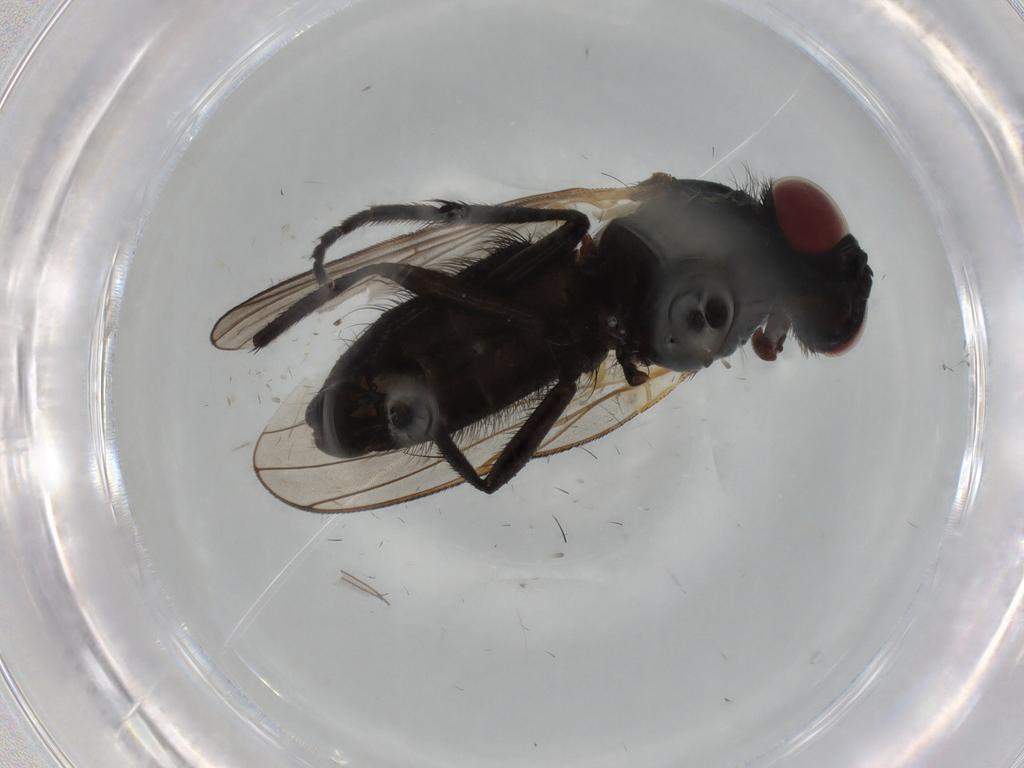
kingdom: Animalia
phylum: Arthropoda
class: Insecta
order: Diptera
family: Fannia
